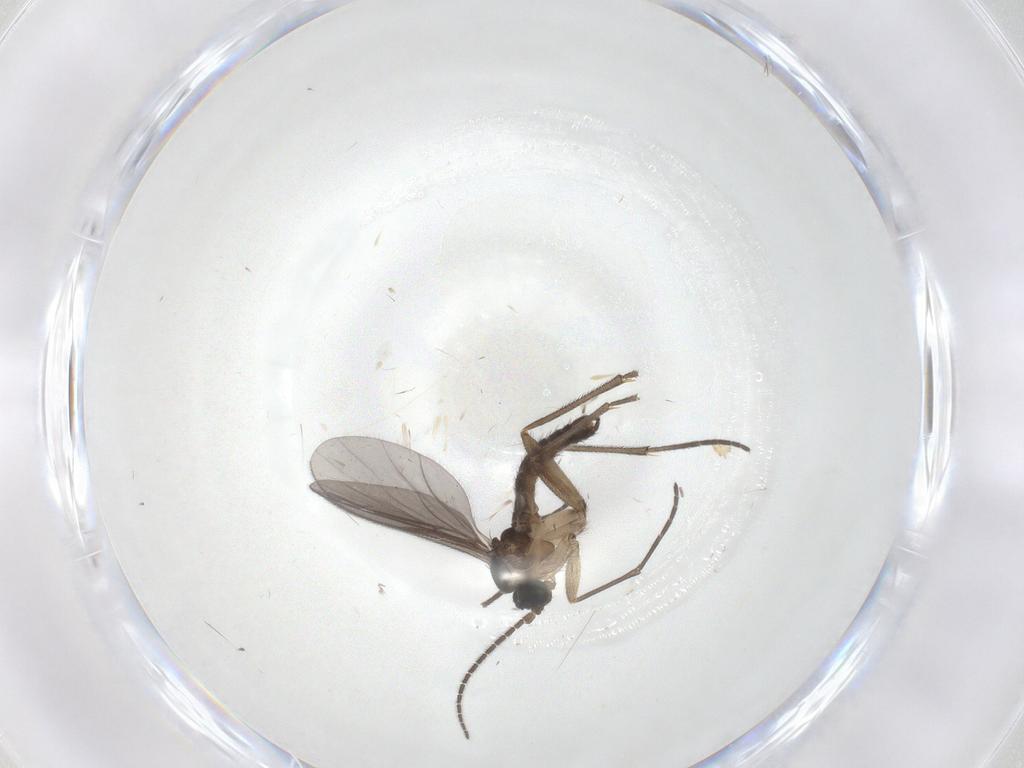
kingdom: Animalia
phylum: Arthropoda
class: Insecta
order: Diptera
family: Sciaridae
